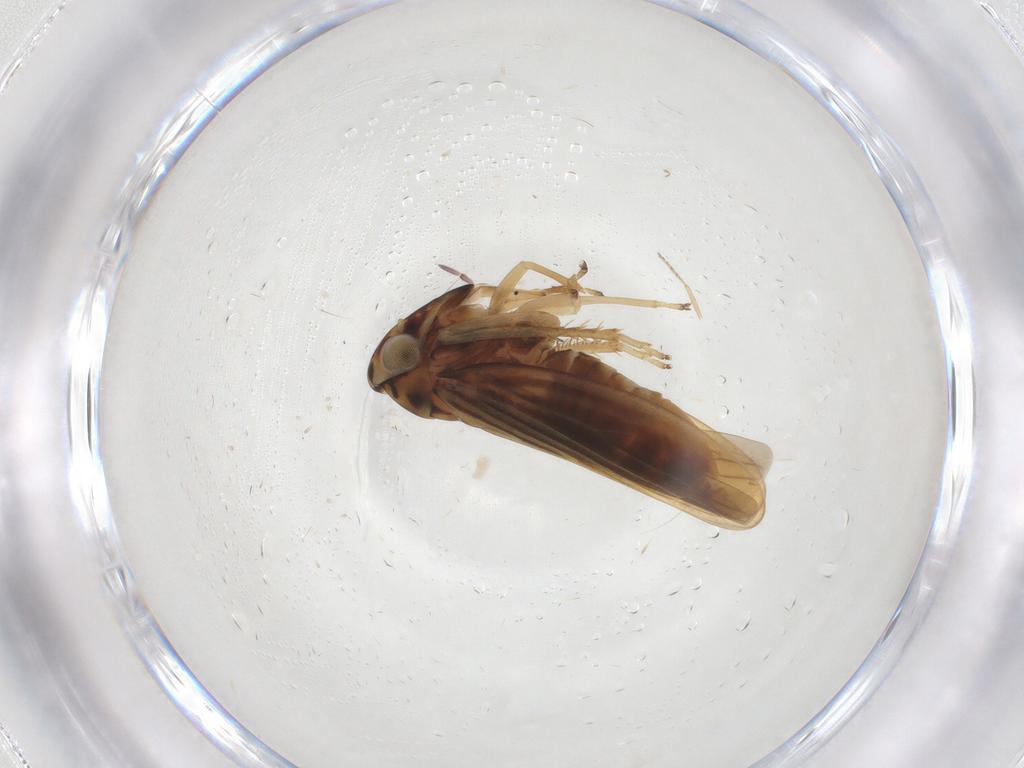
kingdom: Animalia
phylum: Arthropoda
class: Insecta
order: Hemiptera
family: Cicadellidae
